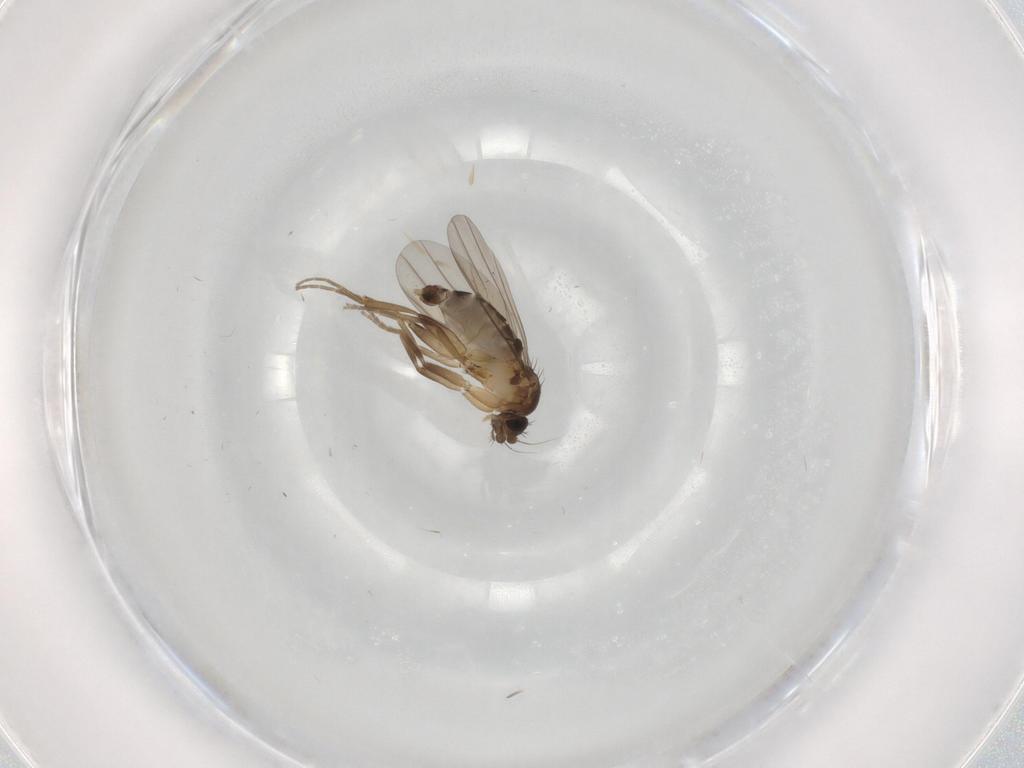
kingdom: Animalia
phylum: Arthropoda
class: Insecta
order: Diptera
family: Phoridae
